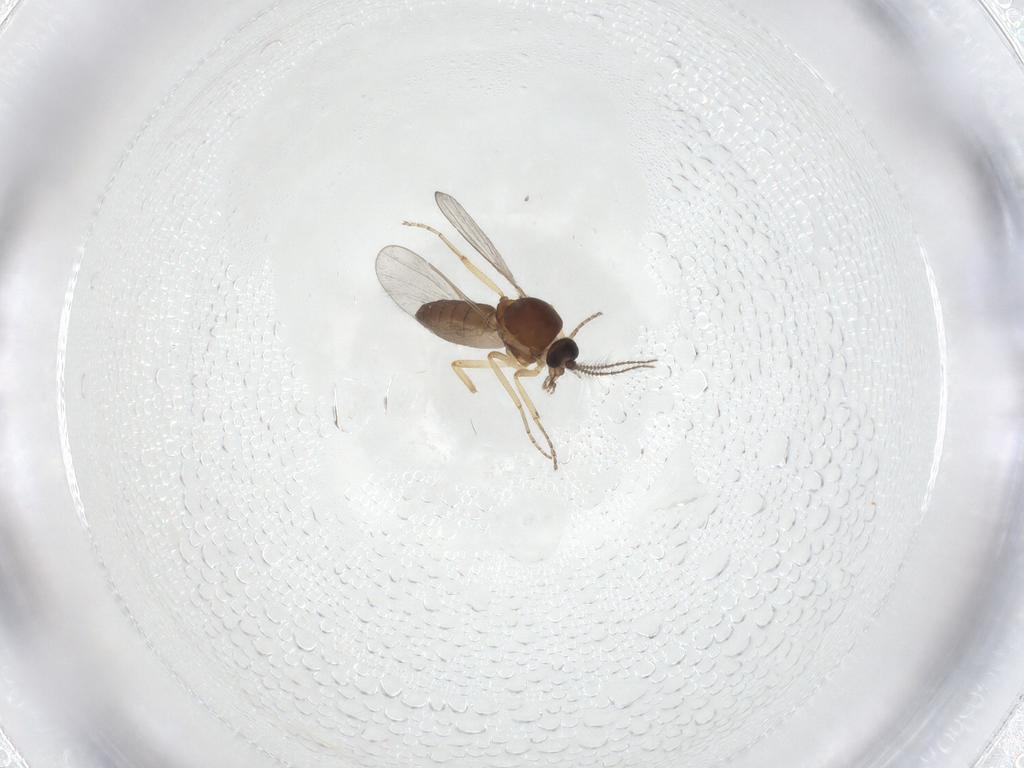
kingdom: Animalia
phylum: Arthropoda
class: Insecta
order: Diptera
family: Ceratopogonidae
